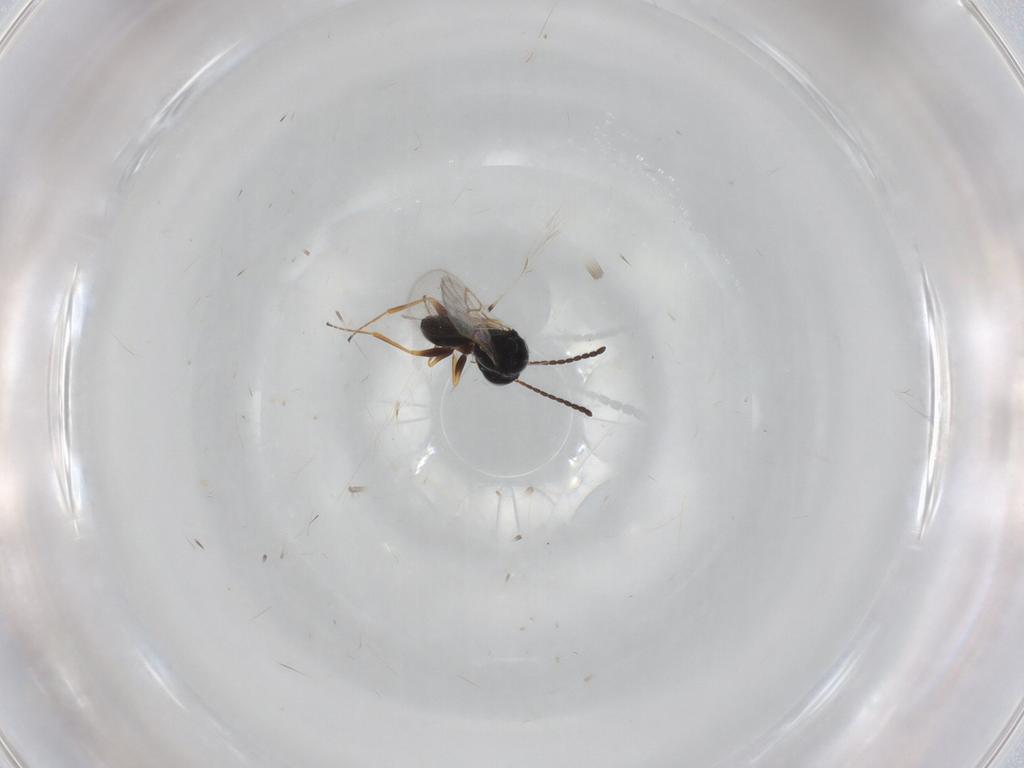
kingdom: Animalia
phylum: Arthropoda
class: Insecta
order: Hymenoptera
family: Figitidae
